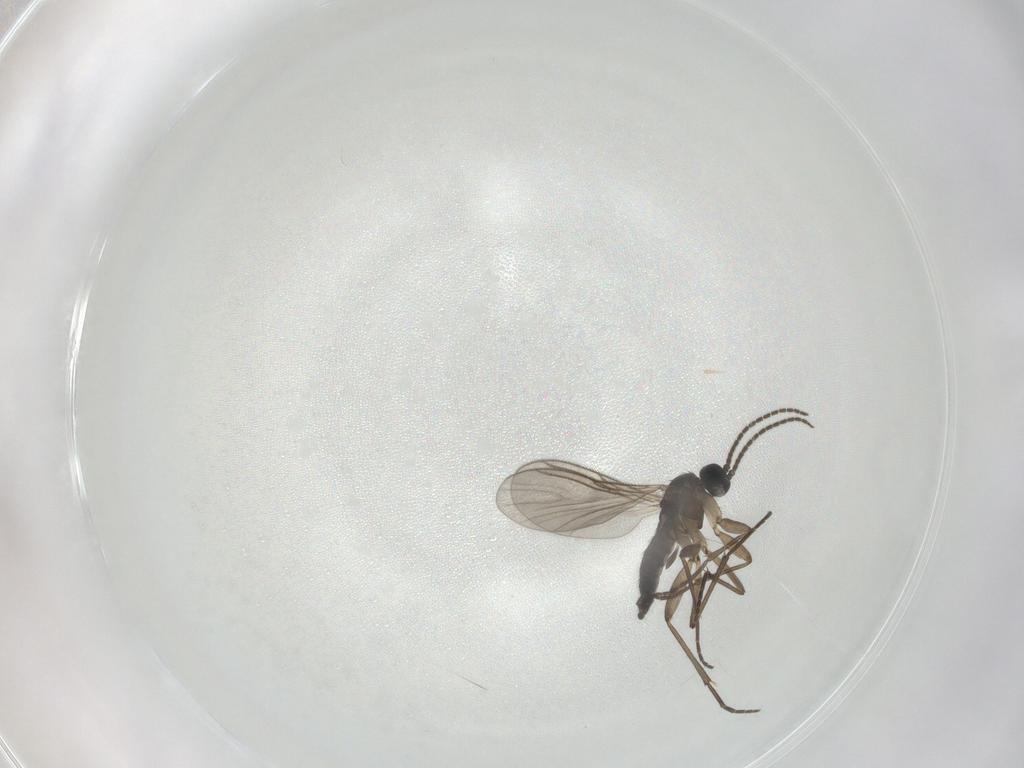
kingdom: Animalia
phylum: Arthropoda
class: Insecta
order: Diptera
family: Sciaridae
